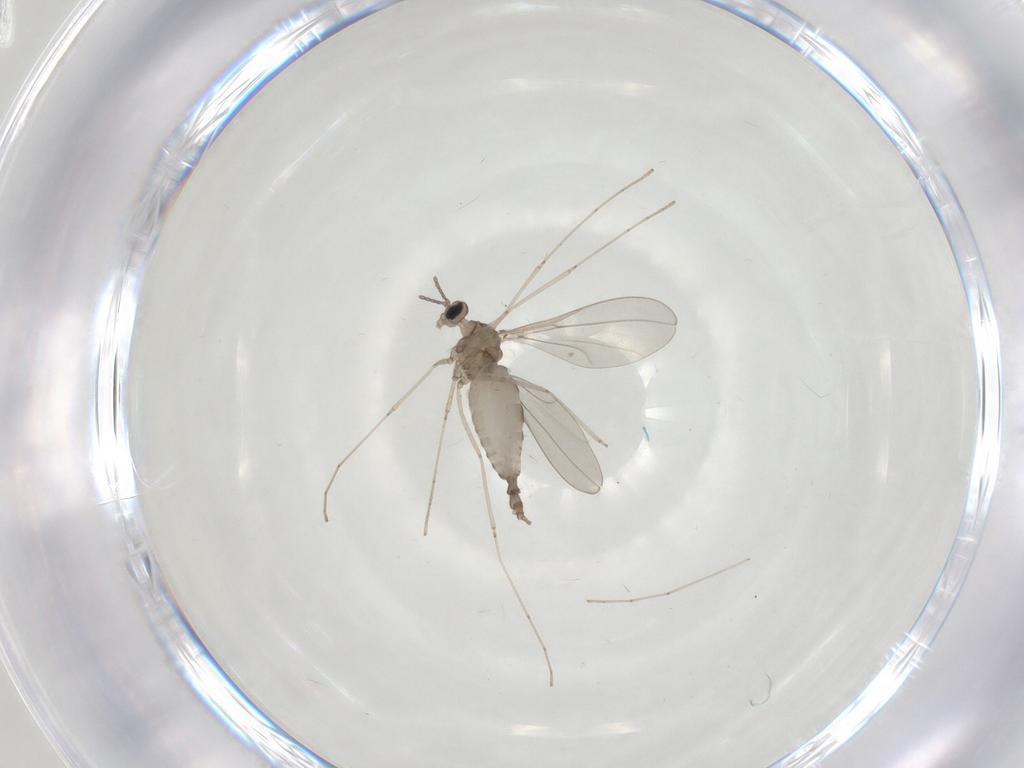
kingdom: Animalia
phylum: Arthropoda
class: Insecta
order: Diptera
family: Cecidomyiidae
